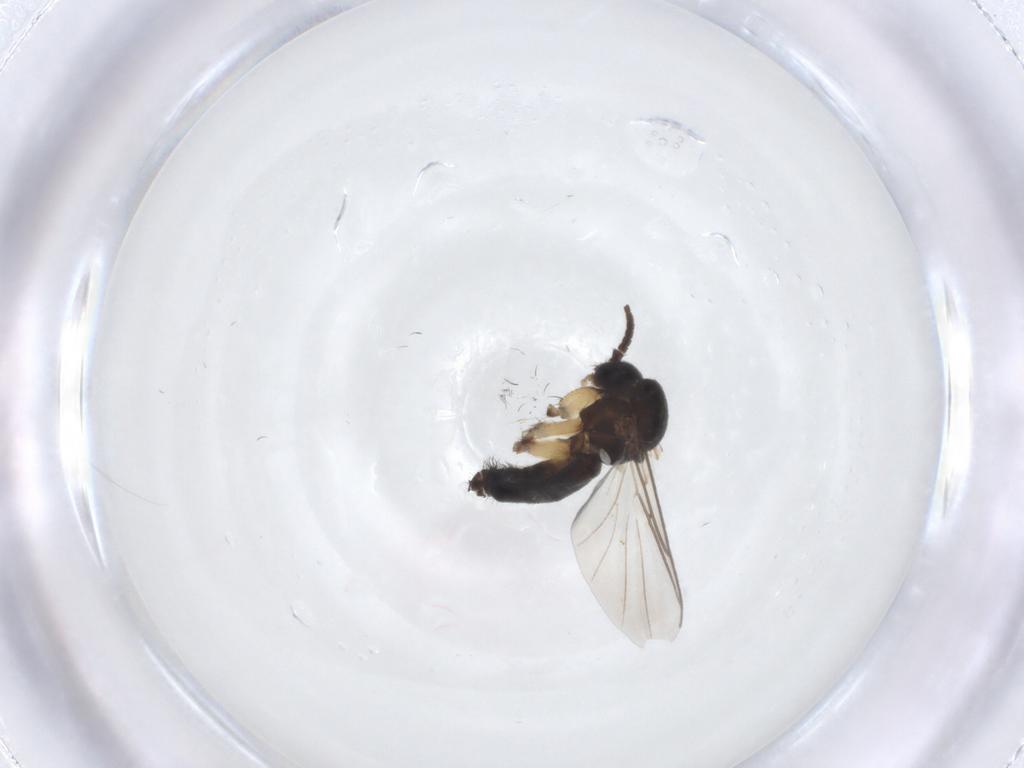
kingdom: Animalia
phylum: Arthropoda
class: Insecta
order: Diptera
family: Mycetophilidae
